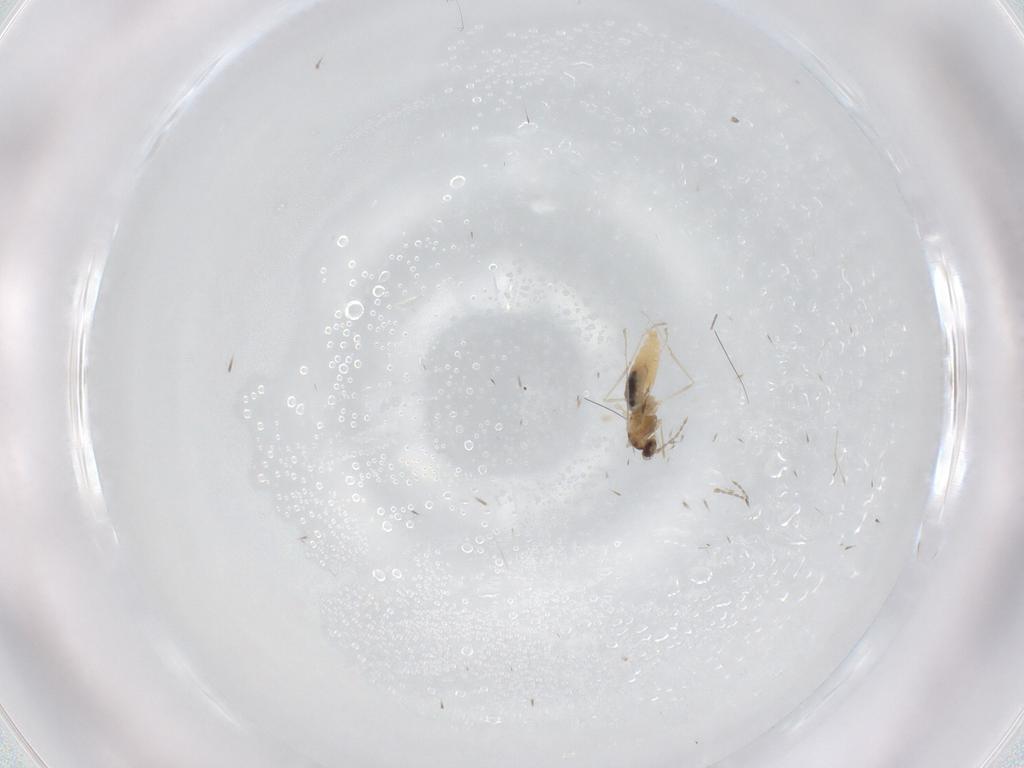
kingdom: Animalia
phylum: Arthropoda
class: Insecta
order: Diptera
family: Cecidomyiidae
